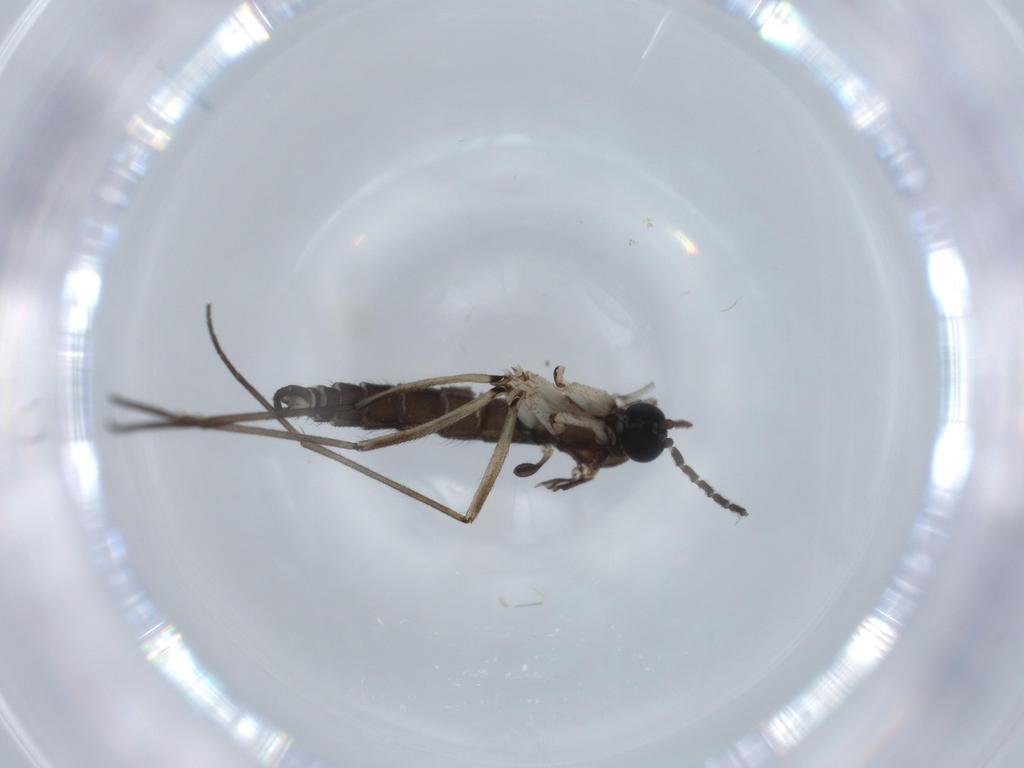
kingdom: Animalia
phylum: Arthropoda
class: Insecta
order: Diptera
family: Sciaridae
